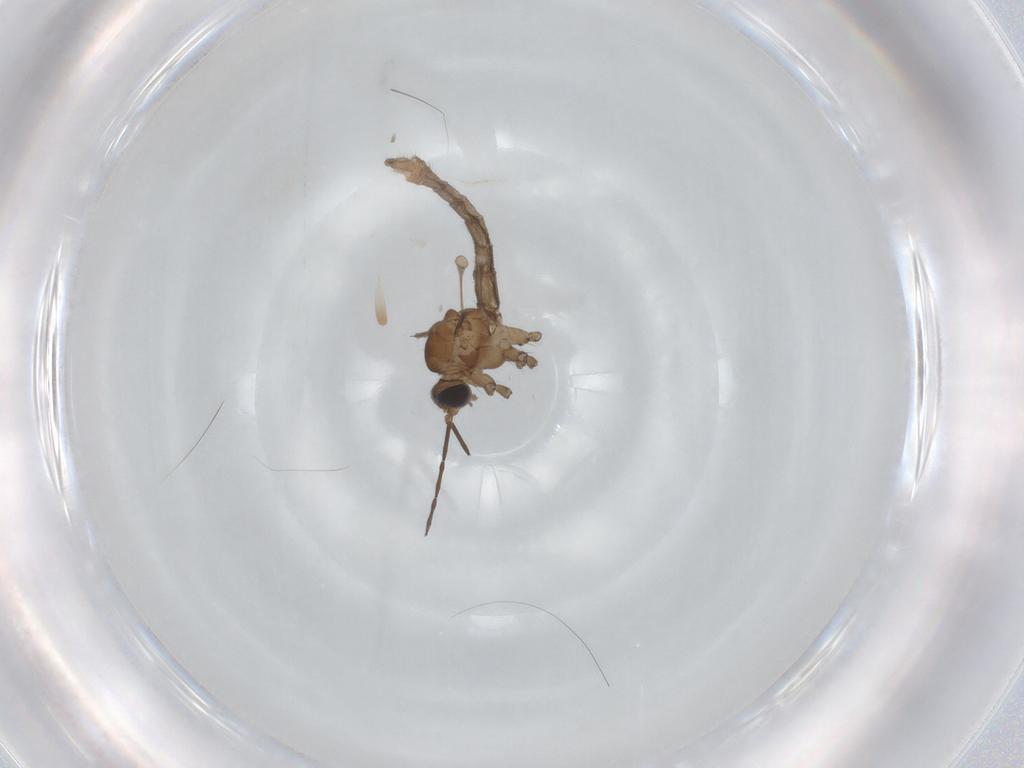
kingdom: Animalia
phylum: Arthropoda
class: Insecta
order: Diptera
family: Limoniidae
